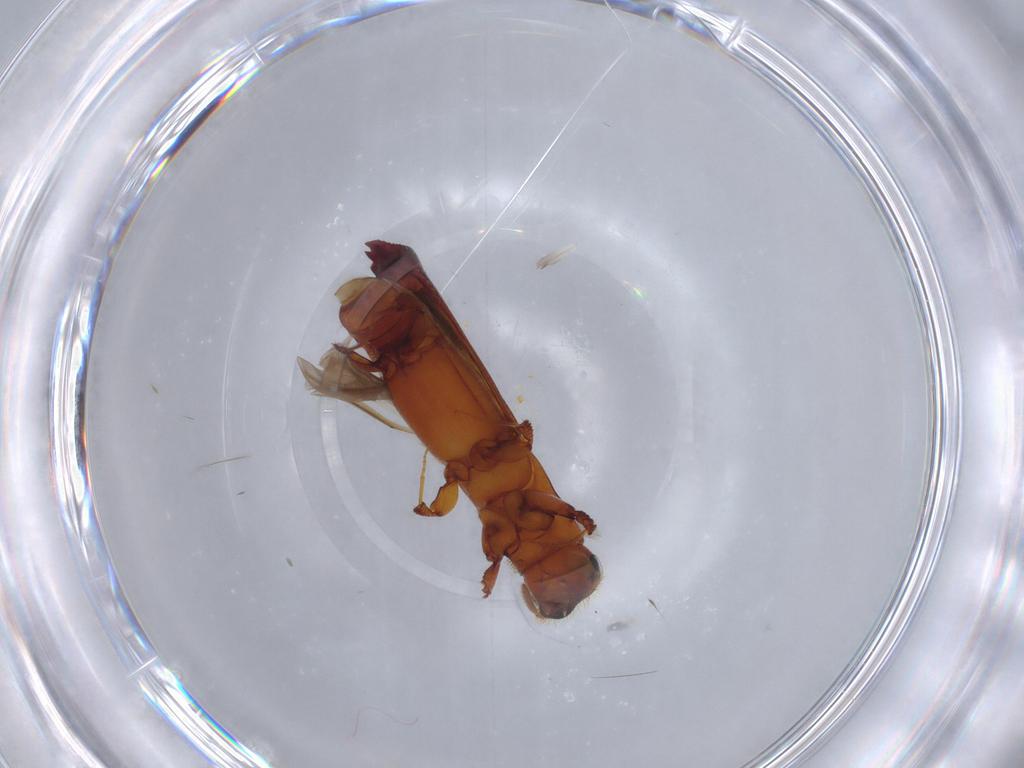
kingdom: Animalia
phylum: Arthropoda
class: Insecta
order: Coleoptera
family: Curculionidae
